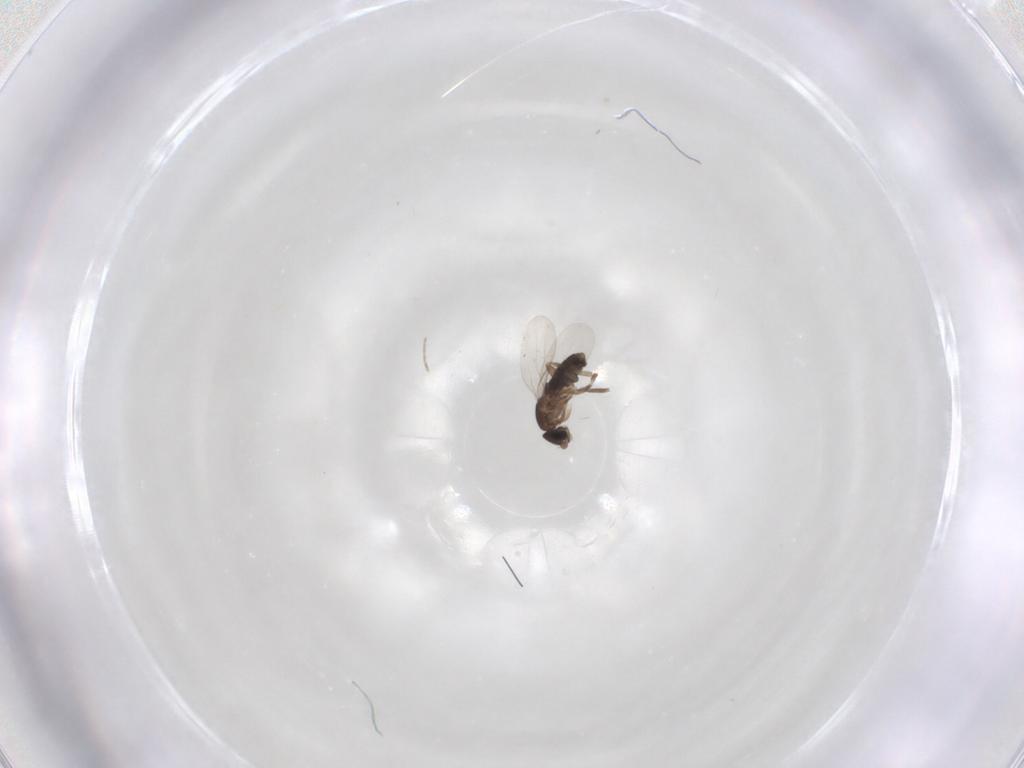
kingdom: Animalia
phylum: Arthropoda
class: Insecta
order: Diptera
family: Phoridae
